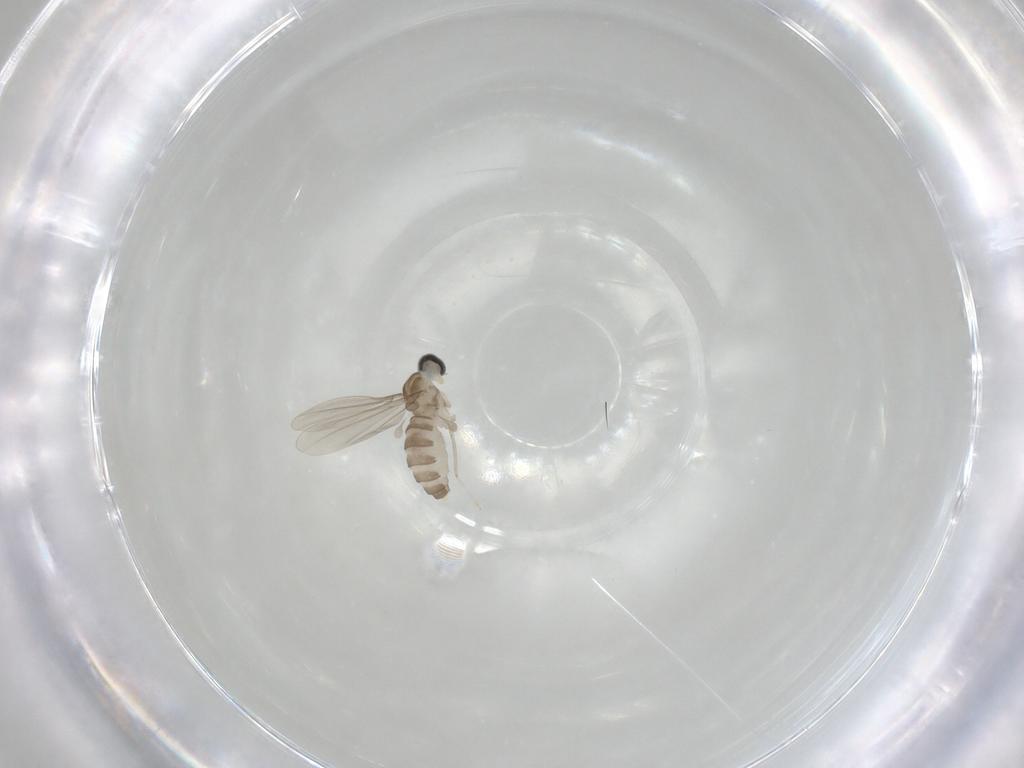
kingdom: Animalia
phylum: Arthropoda
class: Insecta
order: Diptera
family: Cecidomyiidae
